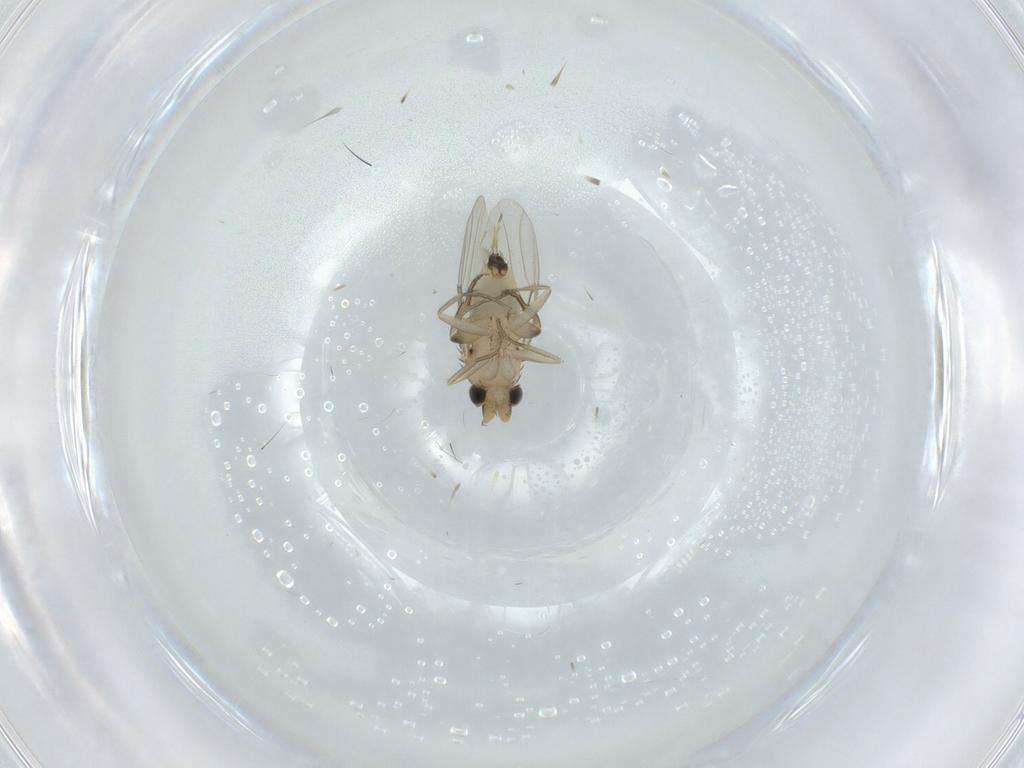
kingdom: Animalia
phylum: Arthropoda
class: Insecta
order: Diptera
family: Phoridae
